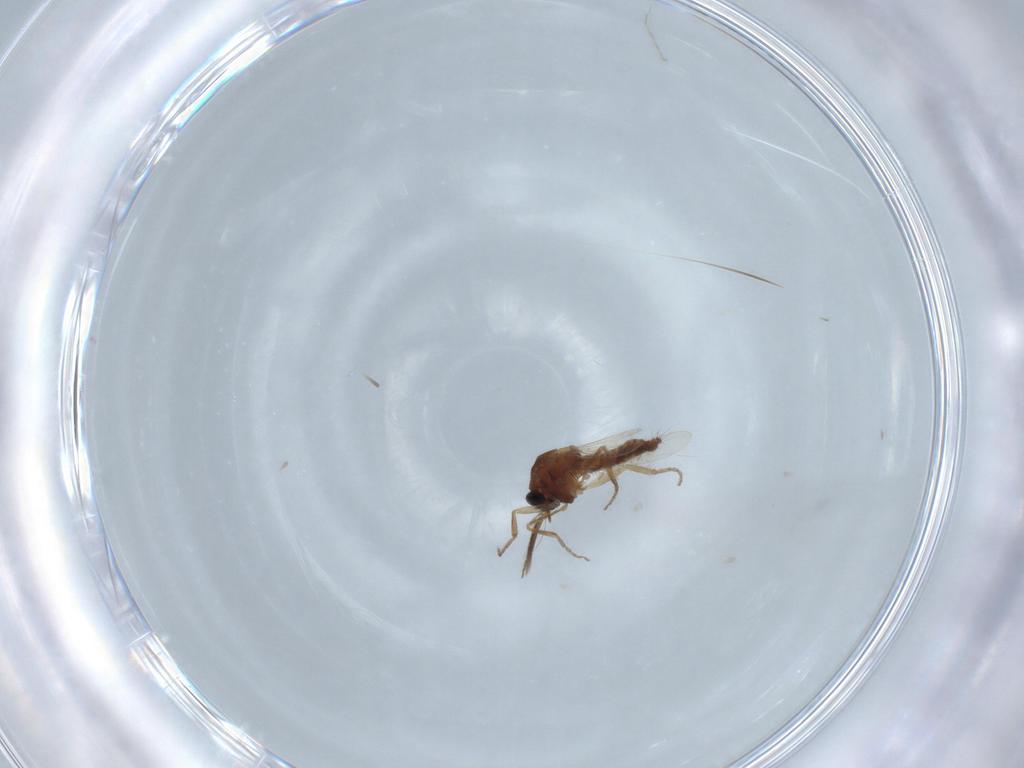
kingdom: Animalia
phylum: Arthropoda
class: Insecta
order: Diptera
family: Ceratopogonidae
